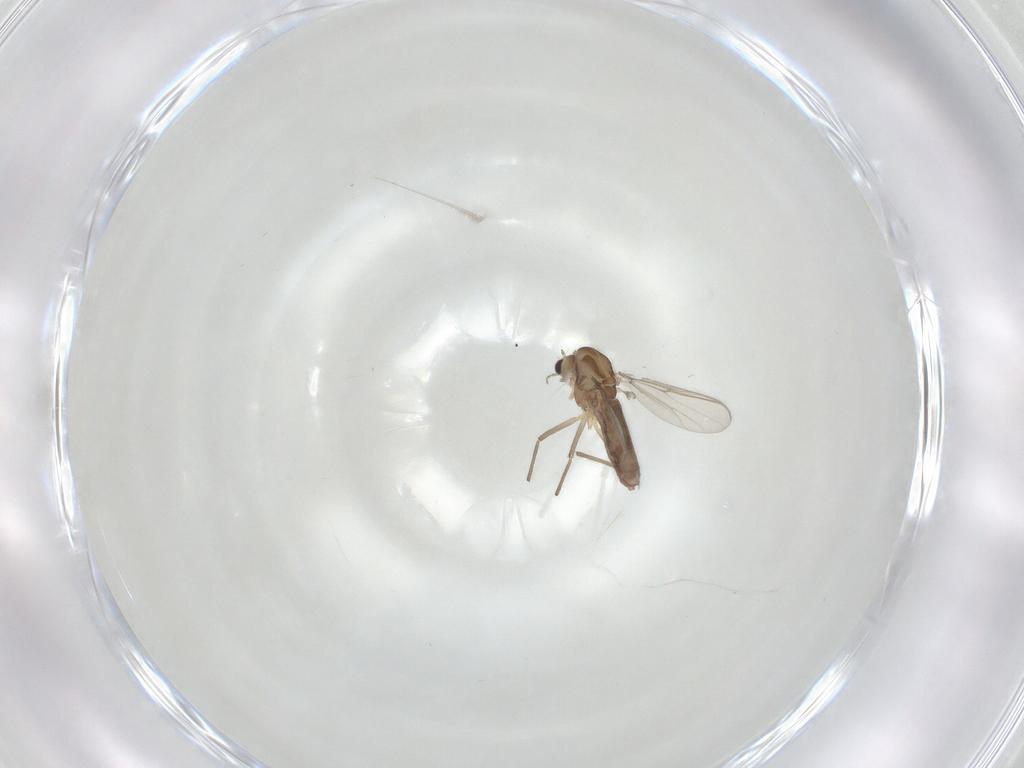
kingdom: Animalia
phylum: Arthropoda
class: Insecta
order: Diptera
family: Chironomidae
